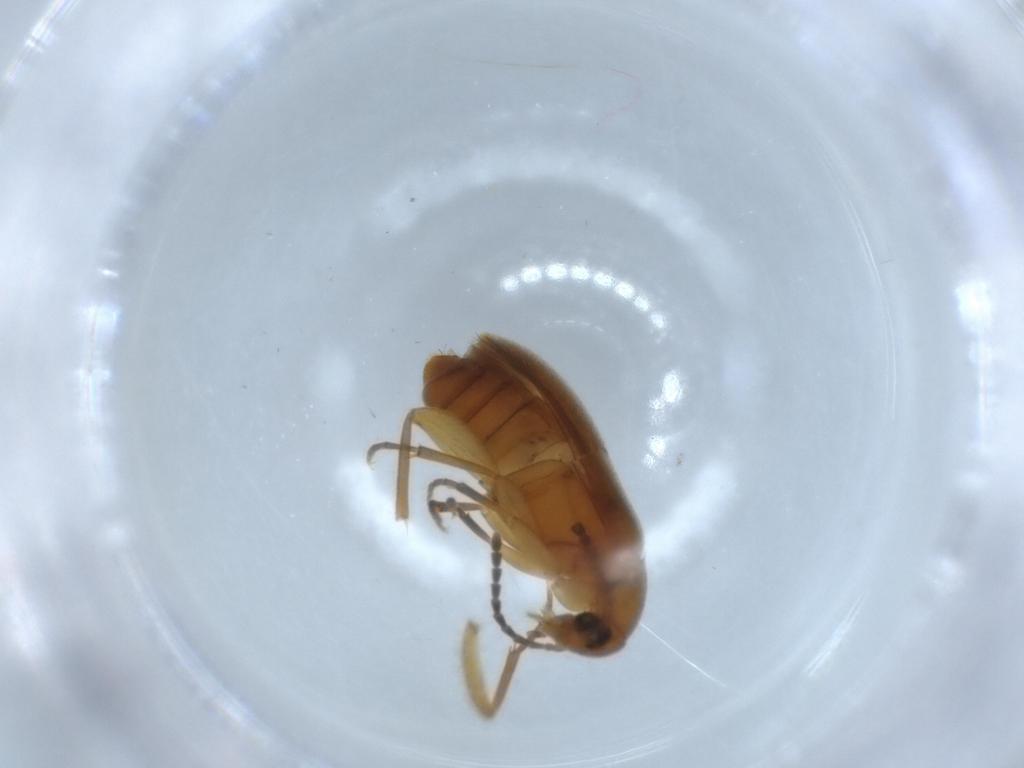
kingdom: Animalia
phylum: Arthropoda
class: Insecta
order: Coleoptera
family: Scraptiidae
